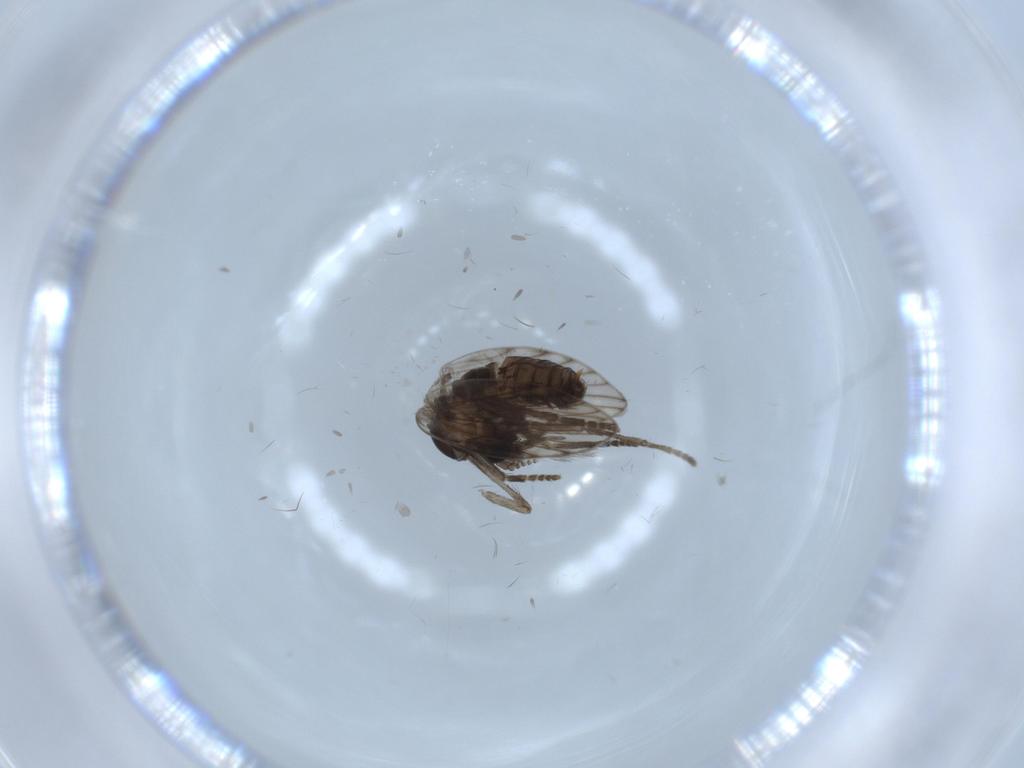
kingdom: Animalia
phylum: Arthropoda
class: Insecta
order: Diptera
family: Psychodidae
